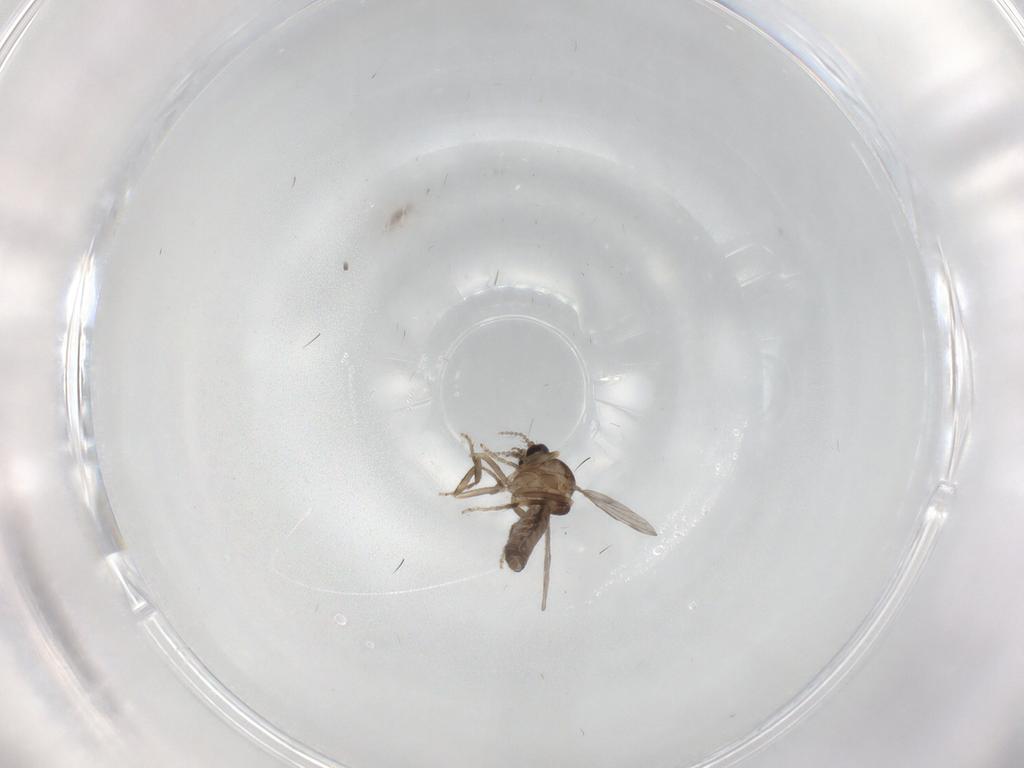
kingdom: Animalia
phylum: Arthropoda
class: Insecta
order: Diptera
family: Ceratopogonidae
